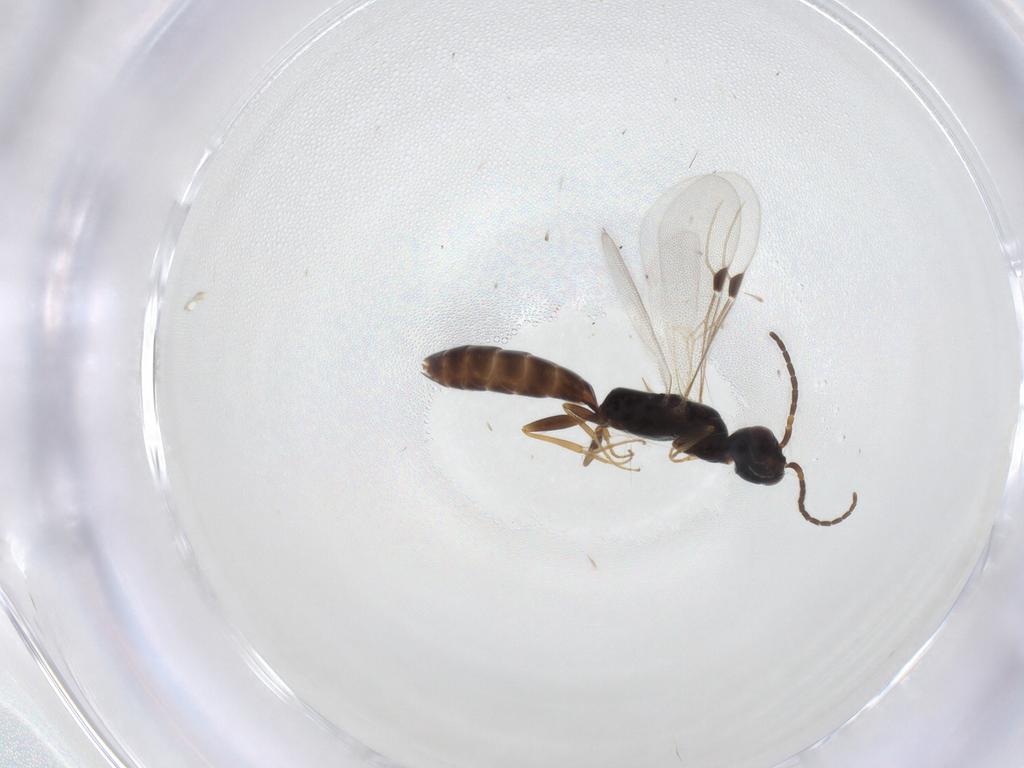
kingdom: Animalia
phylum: Arthropoda
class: Insecta
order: Hymenoptera
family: Bethylidae
